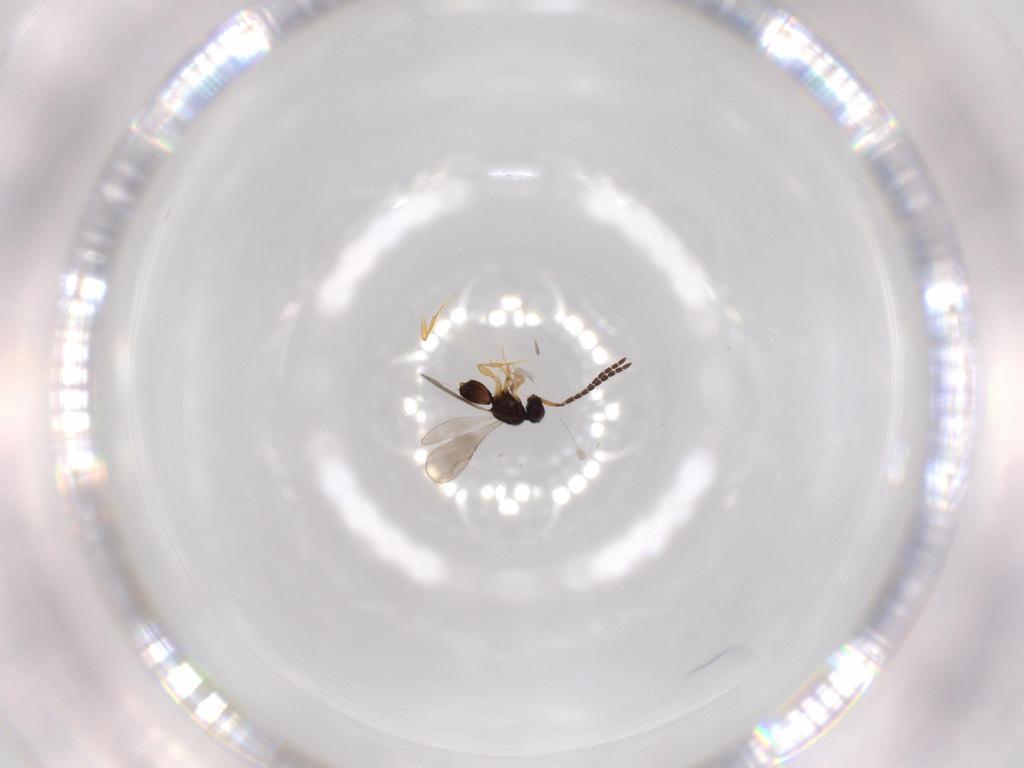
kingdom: Animalia
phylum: Arthropoda
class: Insecta
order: Hymenoptera
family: Ceraphronidae
